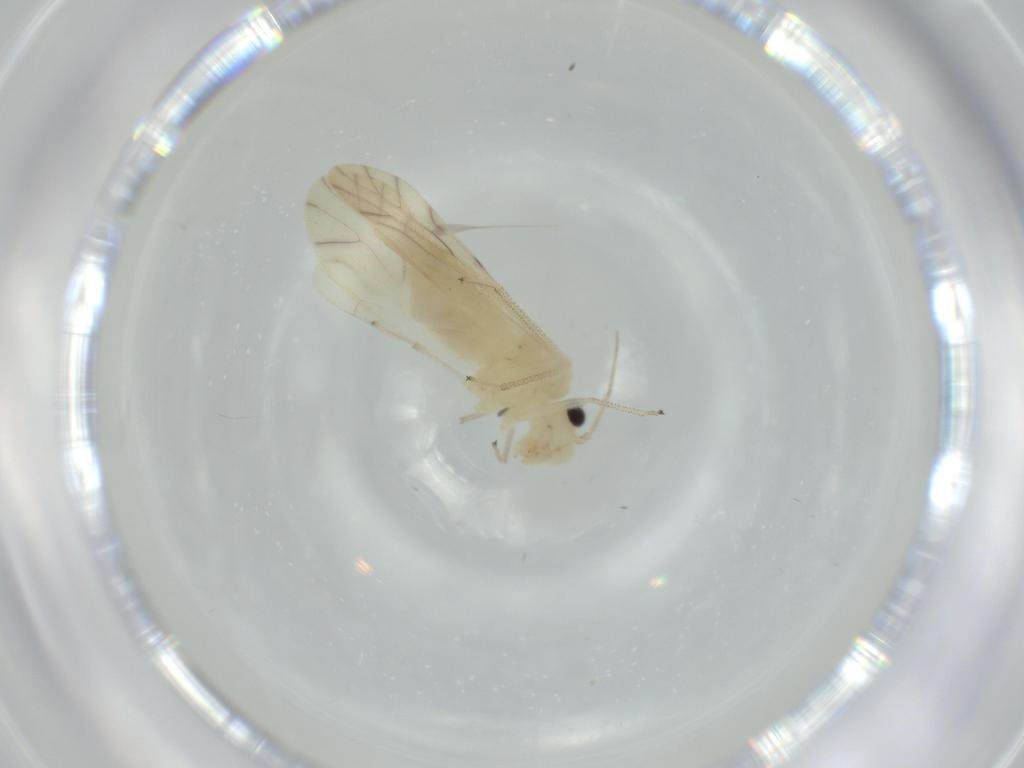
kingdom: Animalia
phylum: Arthropoda
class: Insecta
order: Psocodea
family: Caeciliusidae
